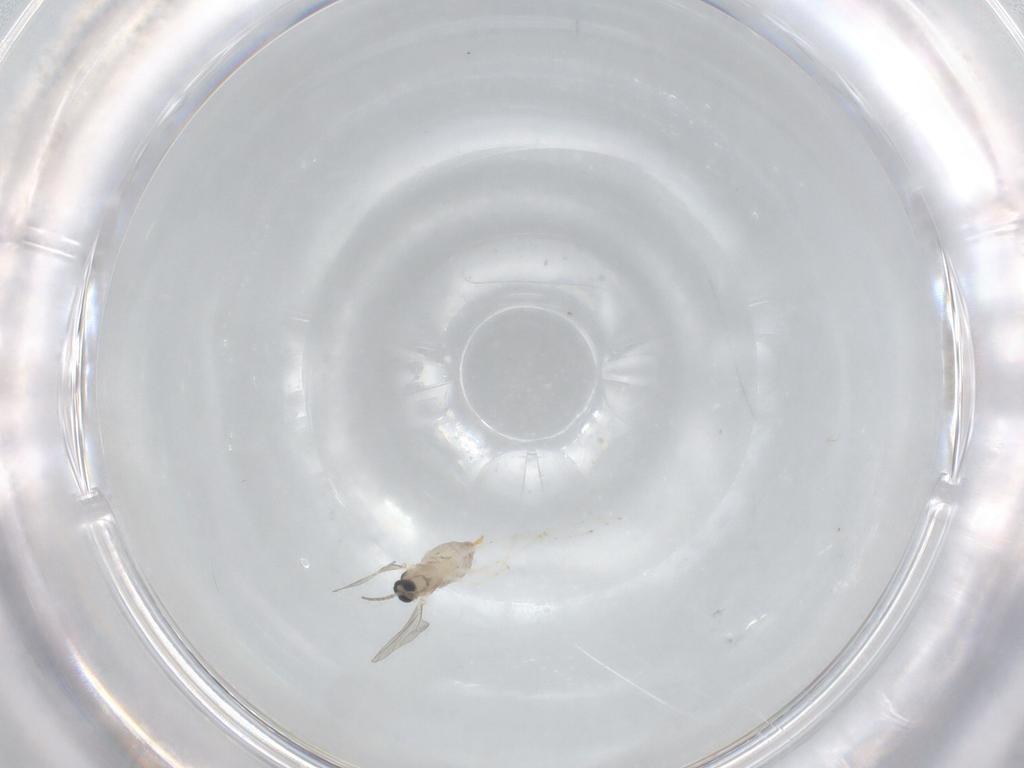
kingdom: Animalia
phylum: Arthropoda
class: Insecta
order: Diptera
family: Cecidomyiidae
